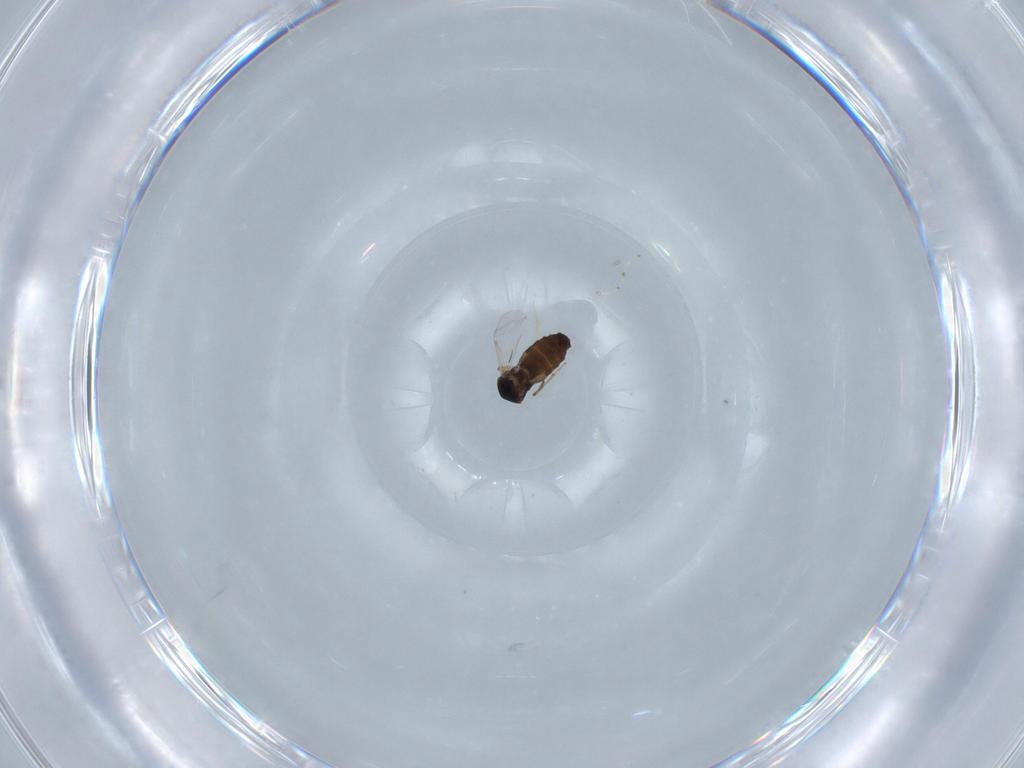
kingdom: Animalia
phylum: Arthropoda
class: Insecta
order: Diptera
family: Ceratopogonidae
